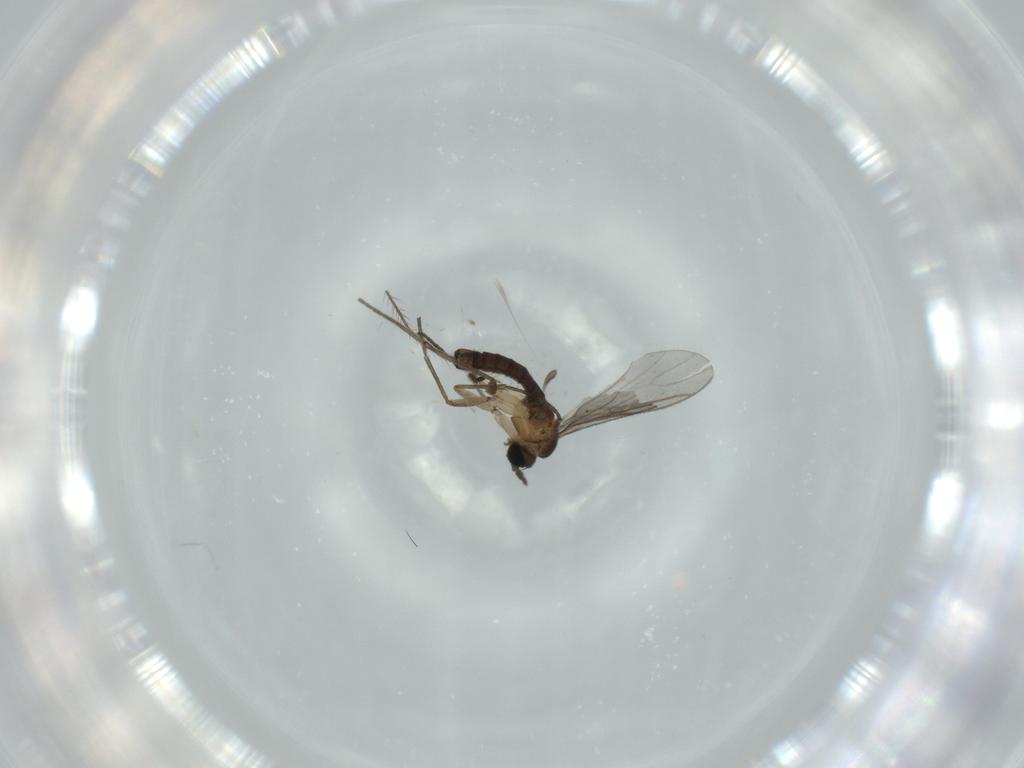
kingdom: Animalia
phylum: Arthropoda
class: Insecta
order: Diptera
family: Sciaridae
